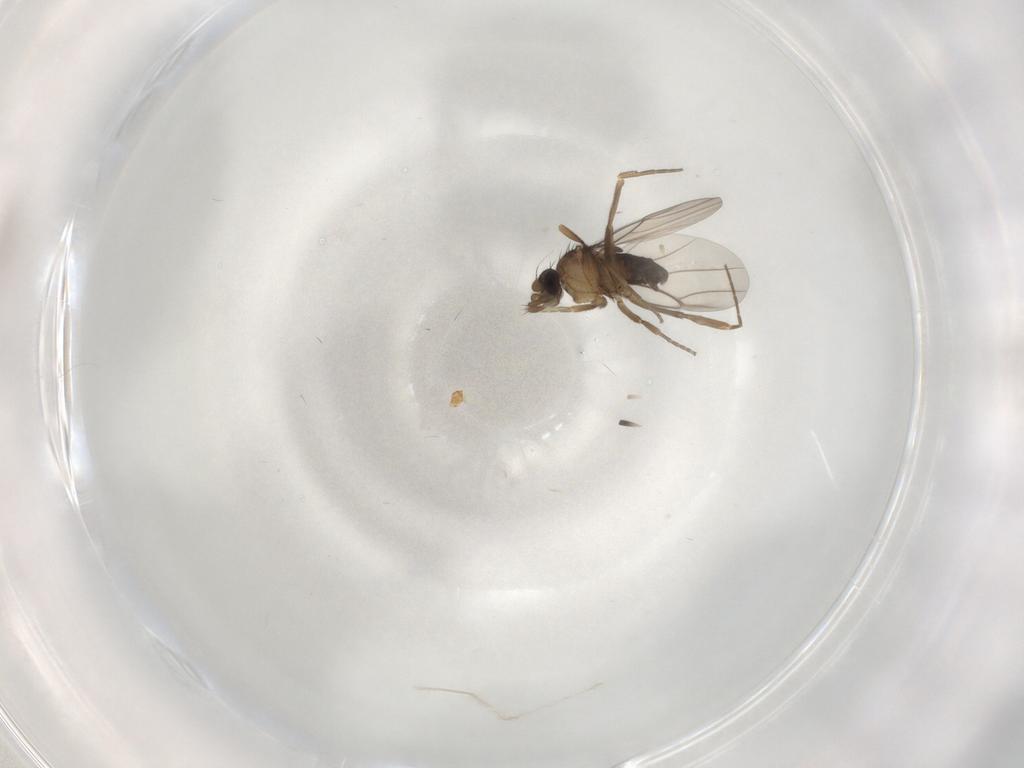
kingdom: Animalia
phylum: Arthropoda
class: Insecta
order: Diptera
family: Phoridae
